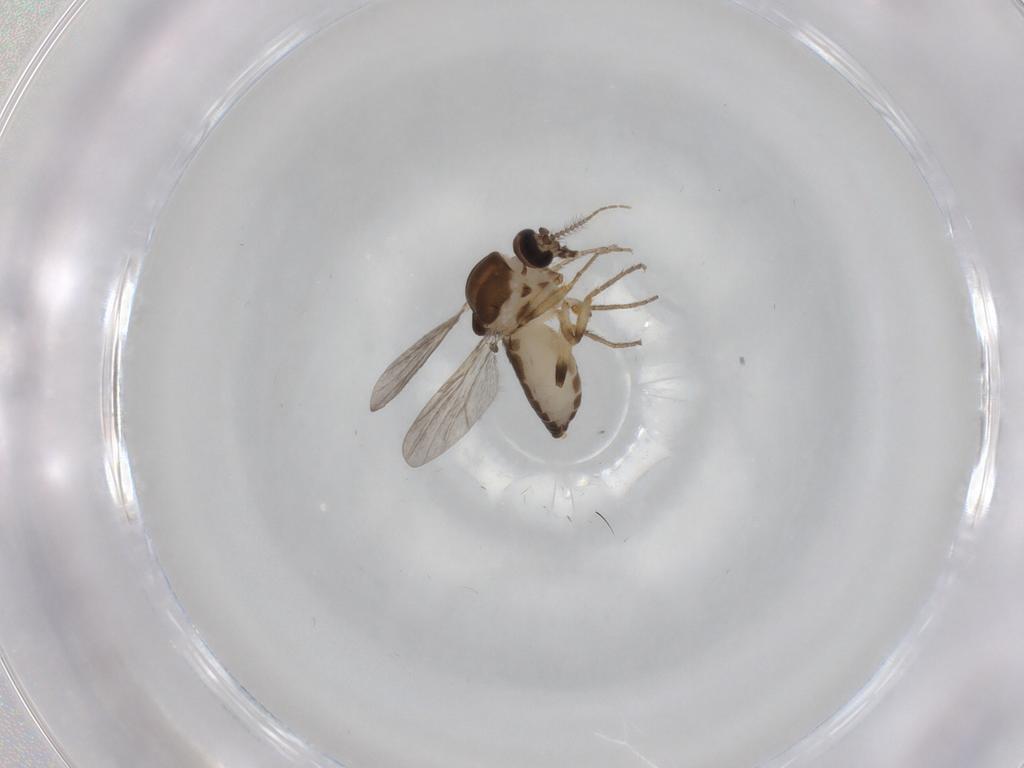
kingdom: Animalia
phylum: Arthropoda
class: Insecta
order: Diptera
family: Ceratopogonidae
